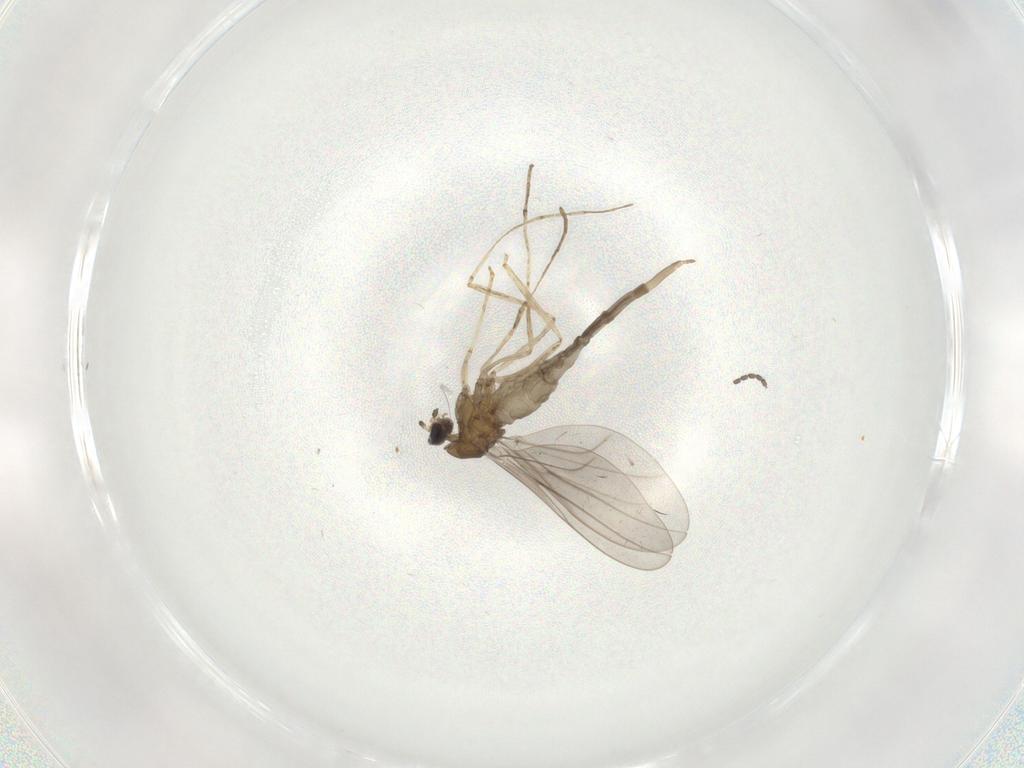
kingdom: Animalia
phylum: Arthropoda
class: Insecta
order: Diptera
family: Cecidomyiidae
